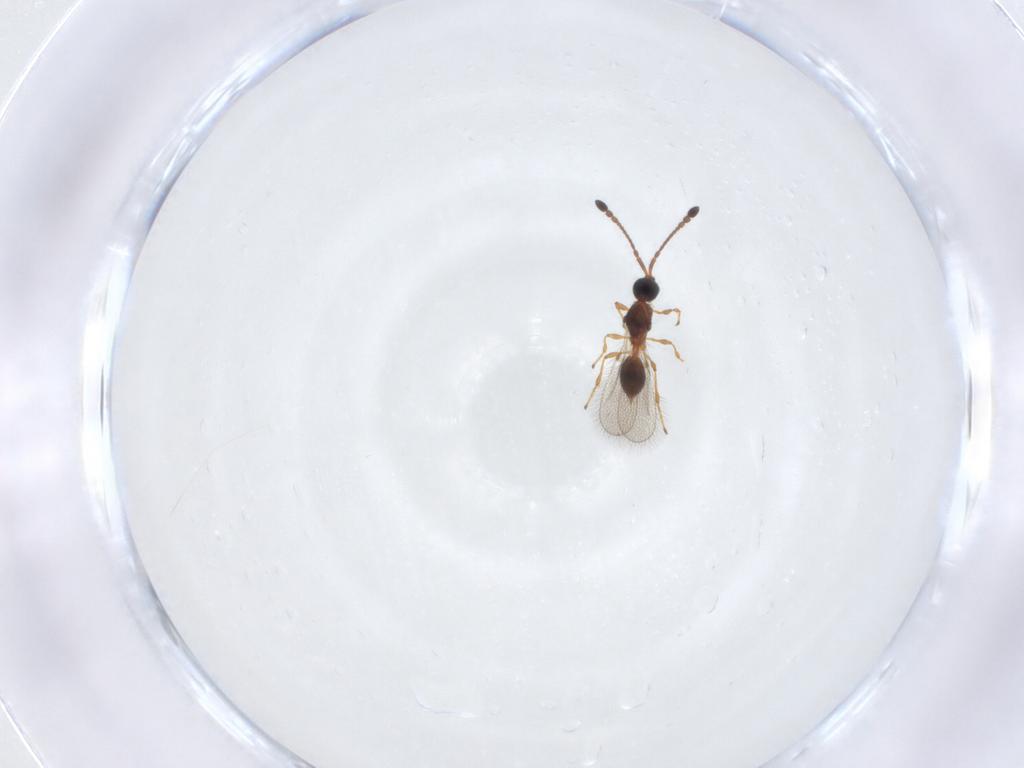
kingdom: Animalia
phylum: Arthropoda
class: Insecta
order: Hymenoptera
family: Diapriidae
